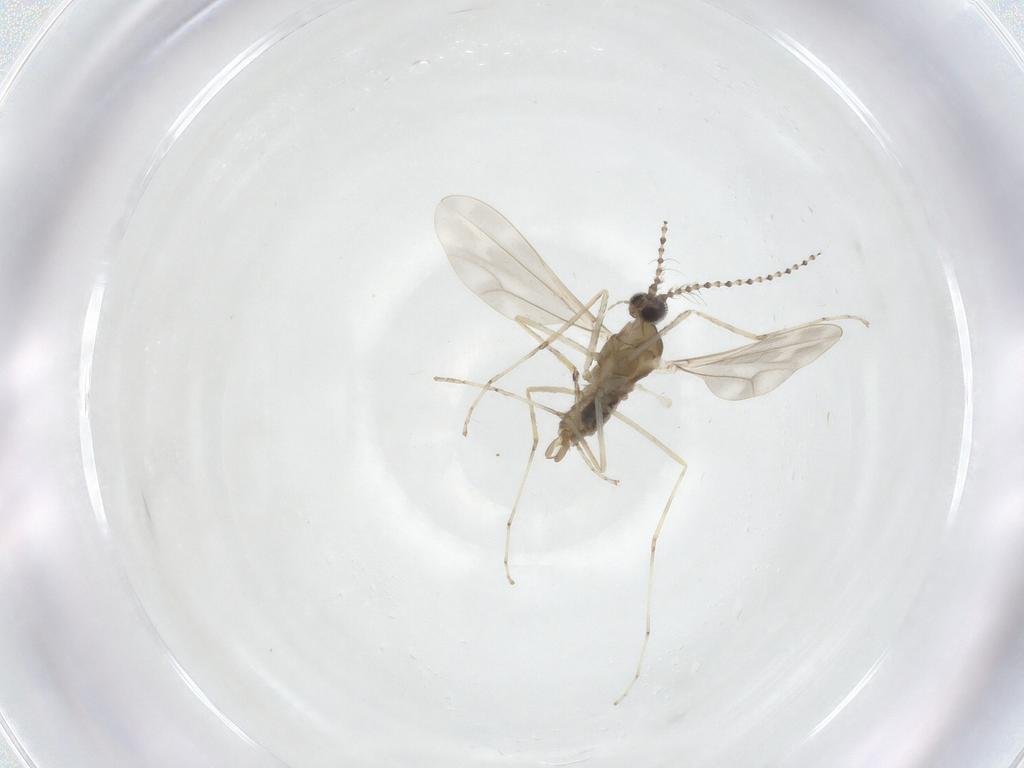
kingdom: Animalia
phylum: Arthropoda
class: Insecta
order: Diptera
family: Cecidomyiidae
